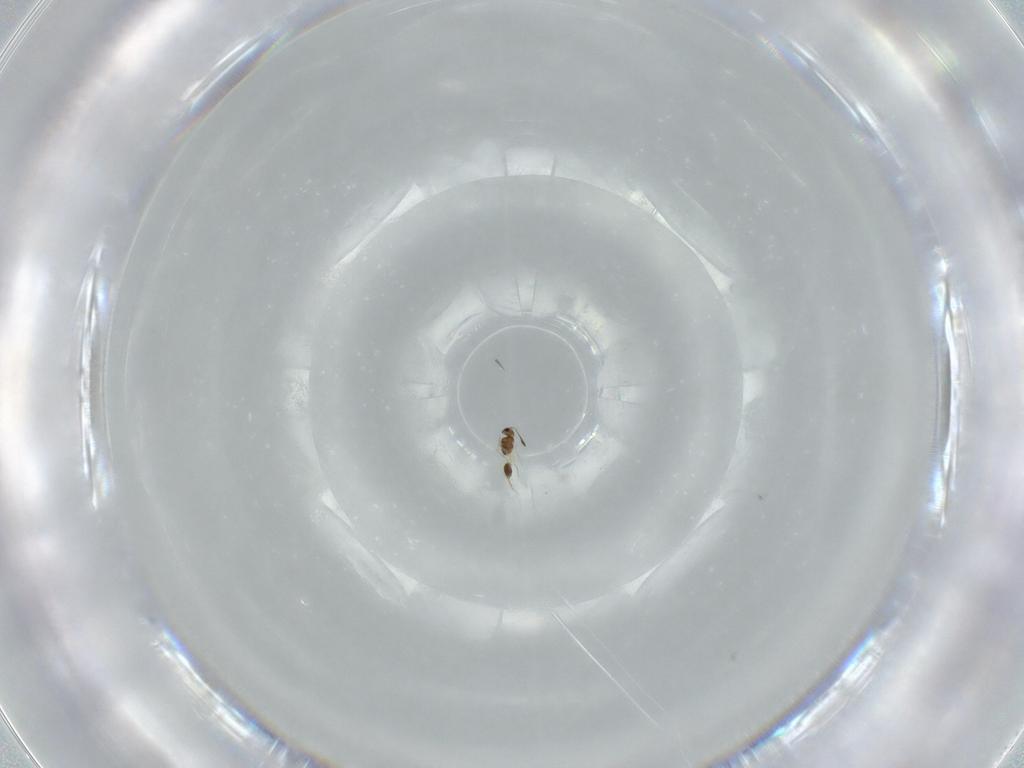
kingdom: Animalia
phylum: Arthropoda
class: Insecta
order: Hymenoptera
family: Mymarommatidae
